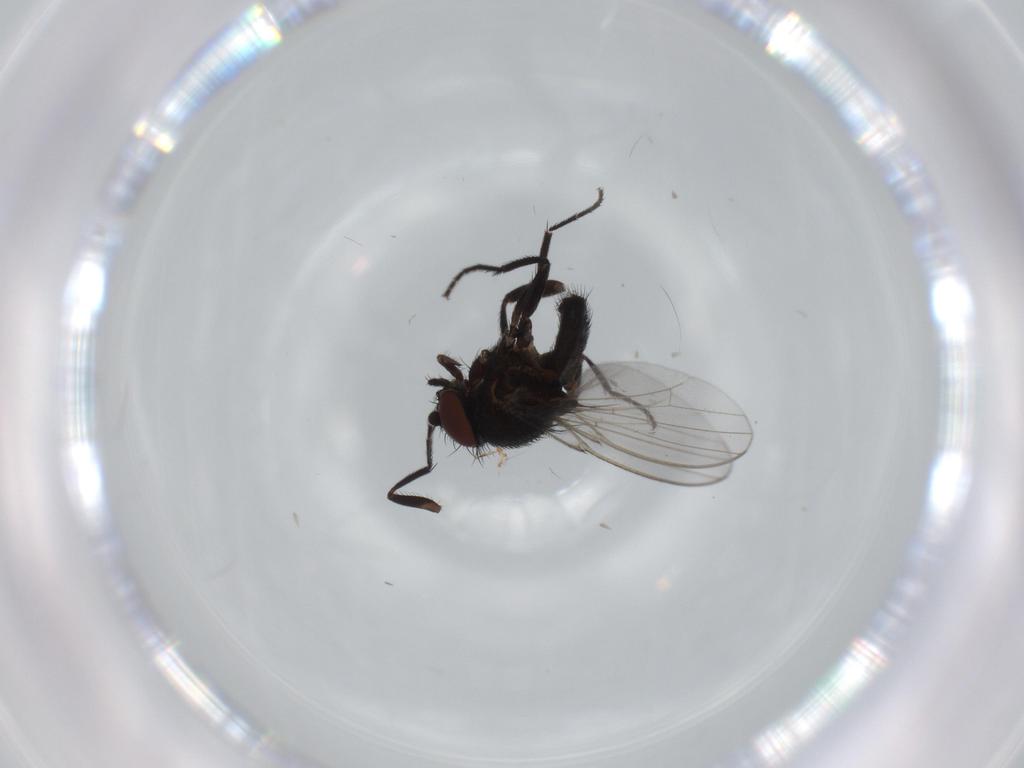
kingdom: Animalia
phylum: Arthropoda
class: Insecta
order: Diptera
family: Milichiidae
